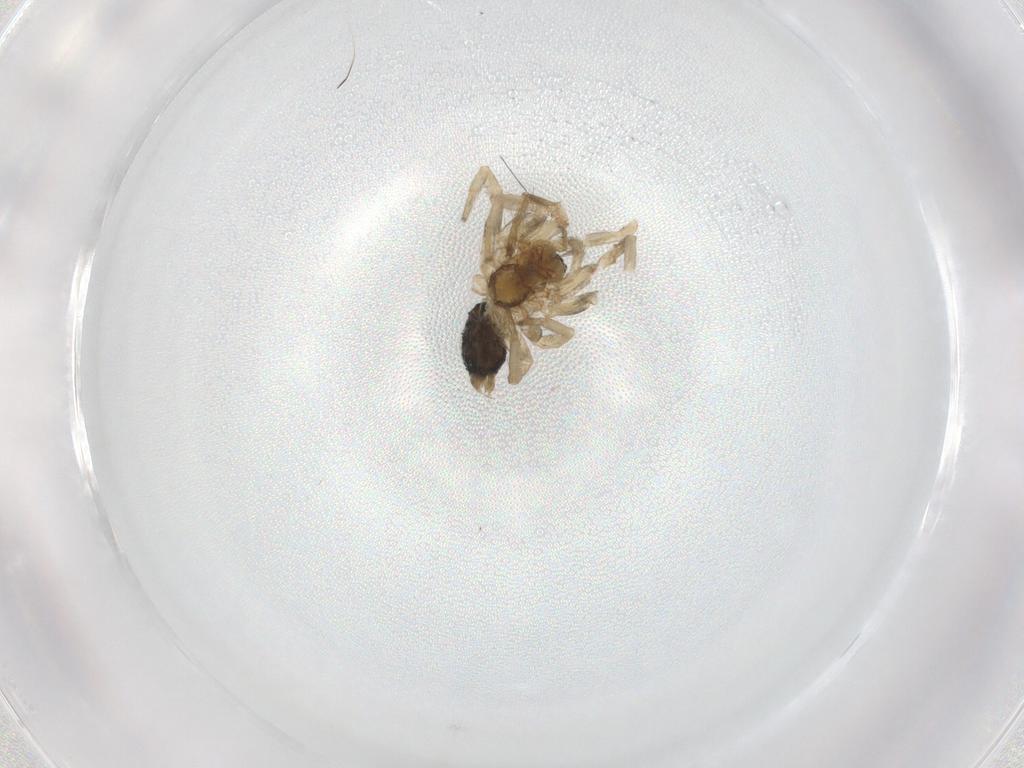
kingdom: Animalia
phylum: Arthropoda
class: Arachnida
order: Araneae
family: Hahniidae
